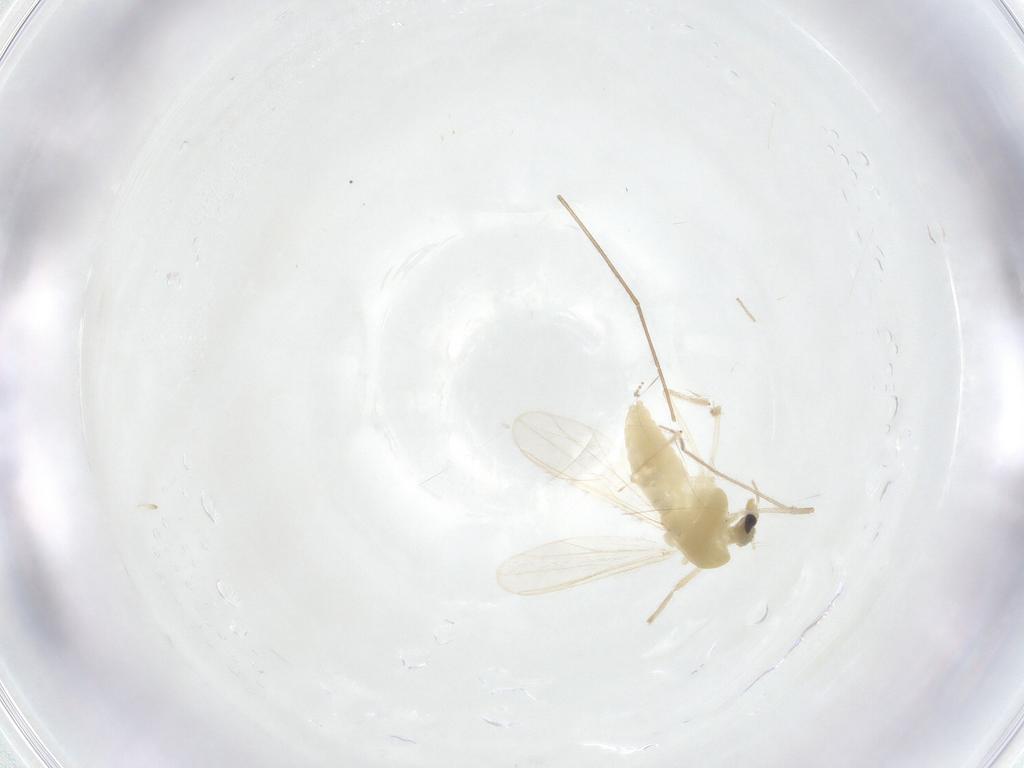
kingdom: Animalia
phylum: Arthropoda
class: Insecta
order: Diptera
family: Chironomidae
